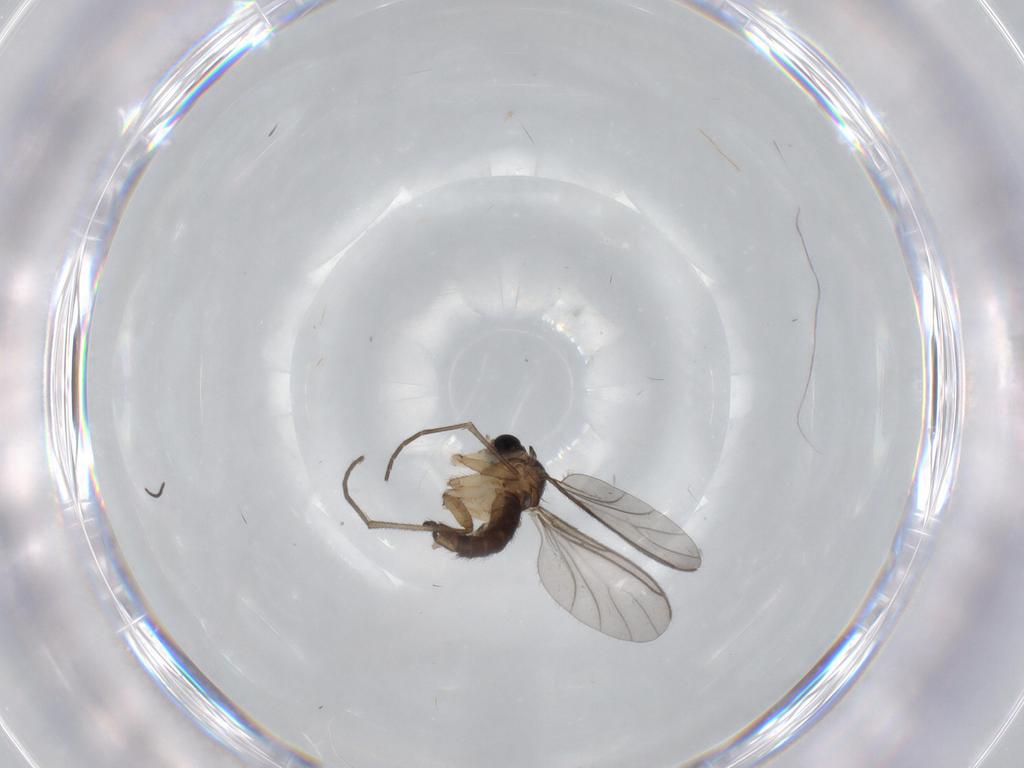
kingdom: Animalia
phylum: Arthropoda
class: Insecta
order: Diptera
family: Sciaridae
